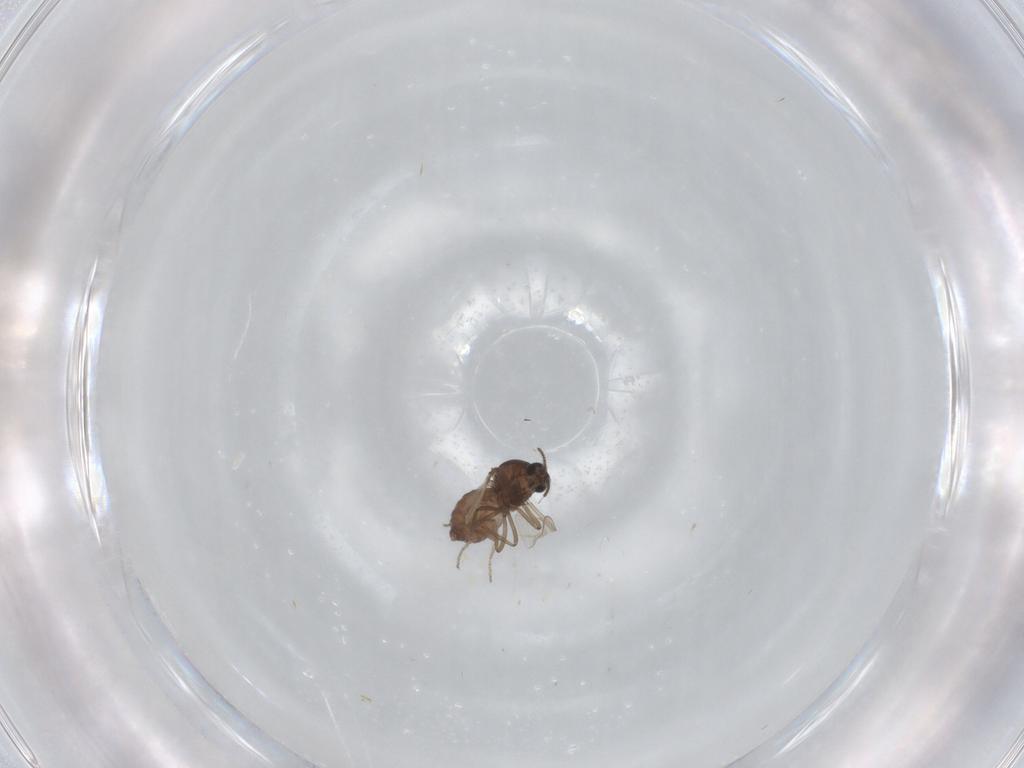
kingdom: Animalia
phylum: Arthropoda
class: Insecta
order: Diptera
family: Ceratopogonidae
